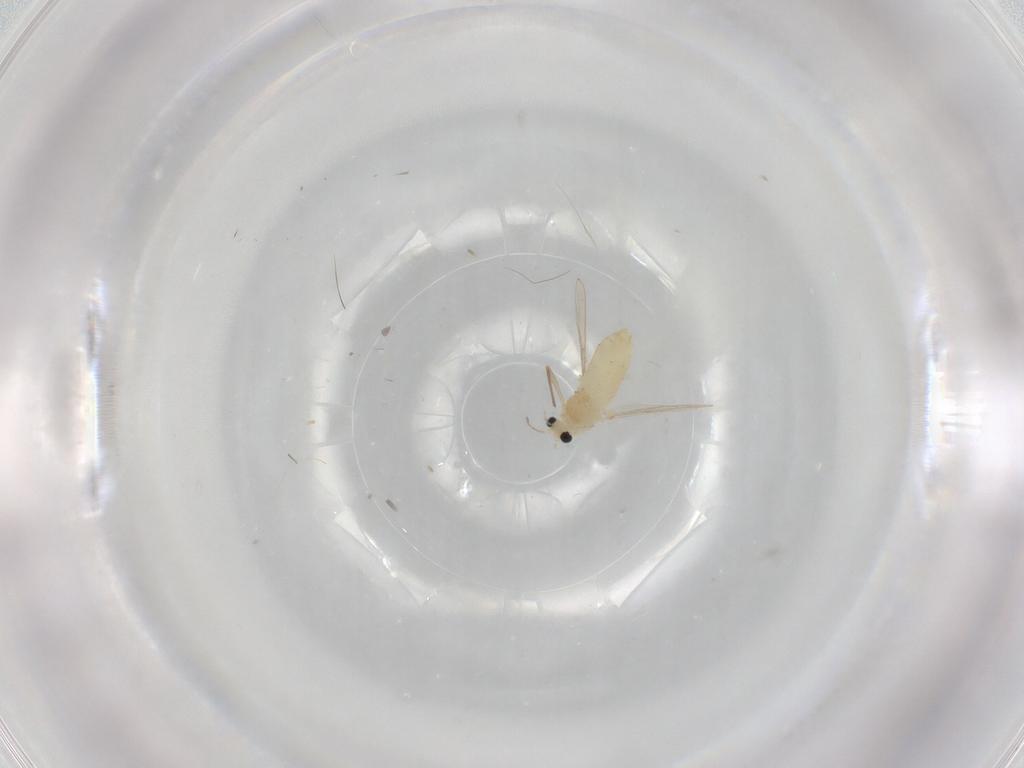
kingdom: Animalia
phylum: Arthropoda
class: Insecta
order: Diptera
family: Chironomidae
